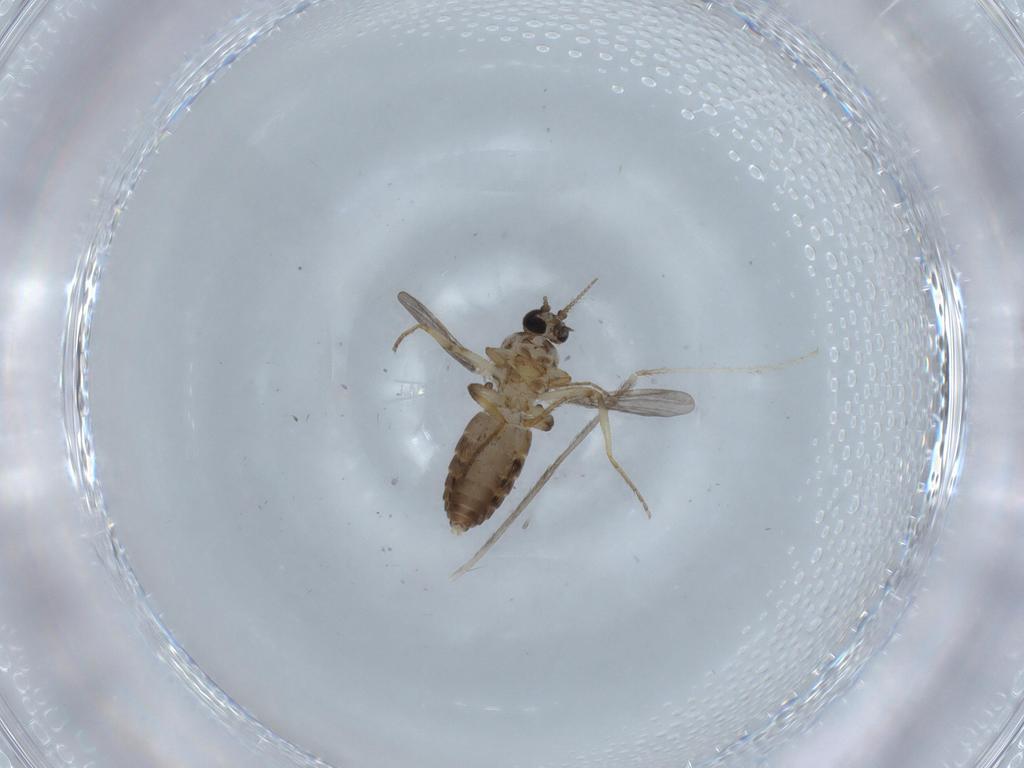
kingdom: Animalia
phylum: Arthropoda
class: Insecta
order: Diptera
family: Ceratopogonidae
